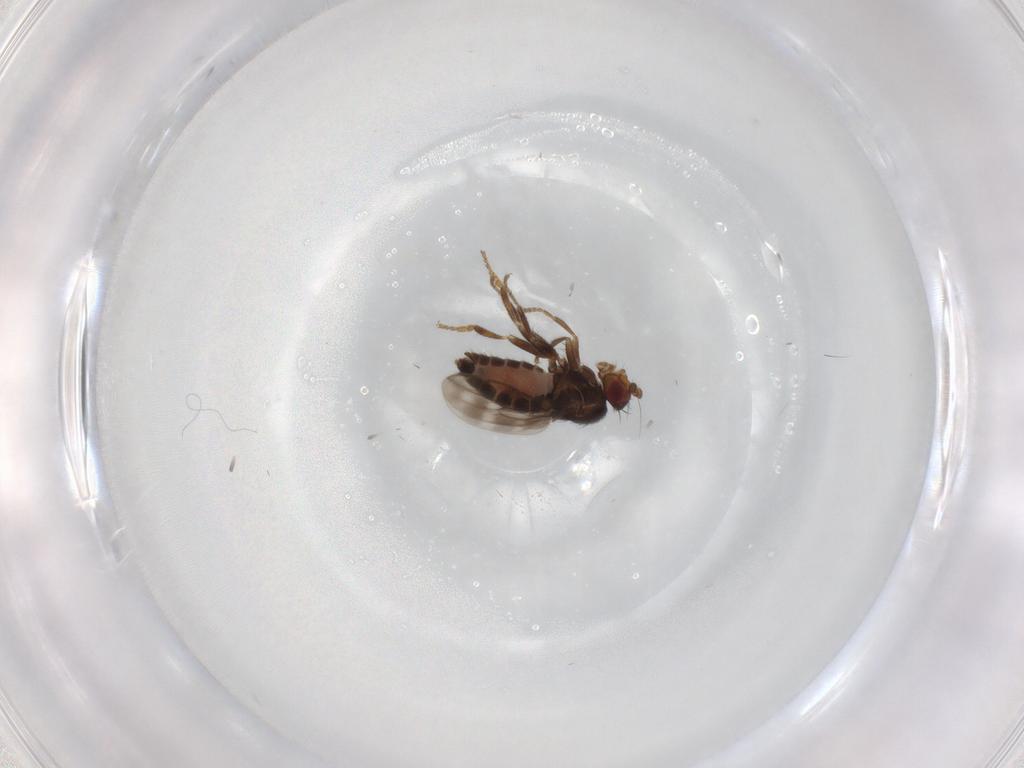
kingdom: Animalia
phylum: Arthropoda
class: Insecta
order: Diptera
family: Sphaeroceridae
